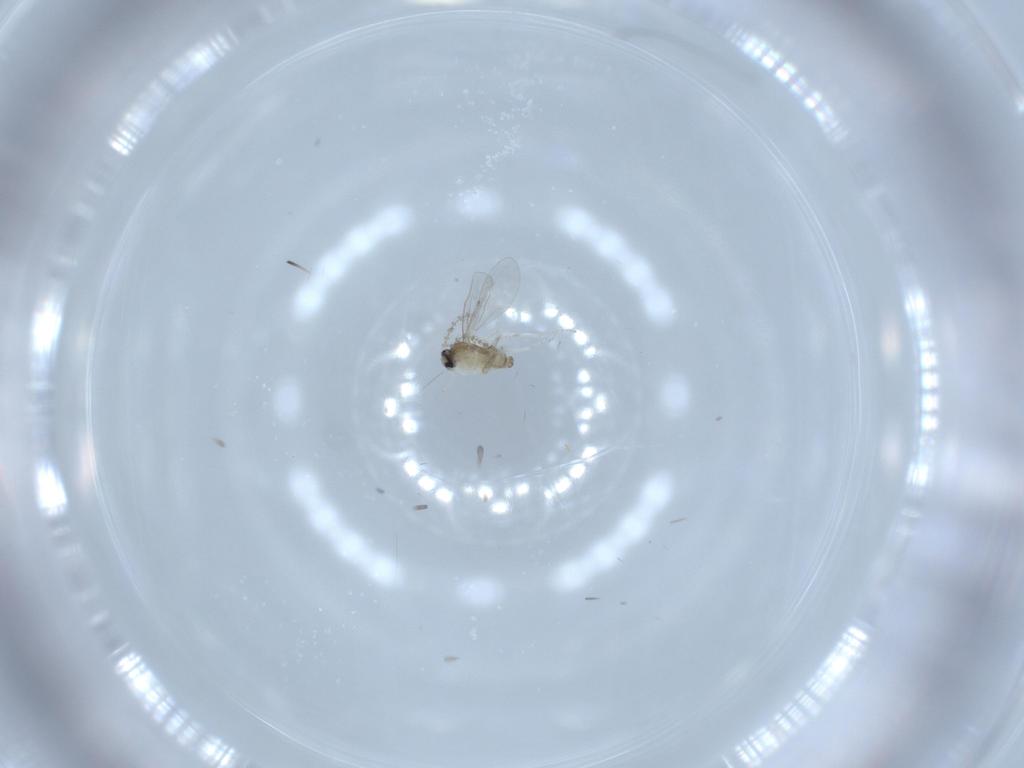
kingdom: Animalia
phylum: Arthropoda
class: Insecta
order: Diptera
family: Cecidomyiidae
